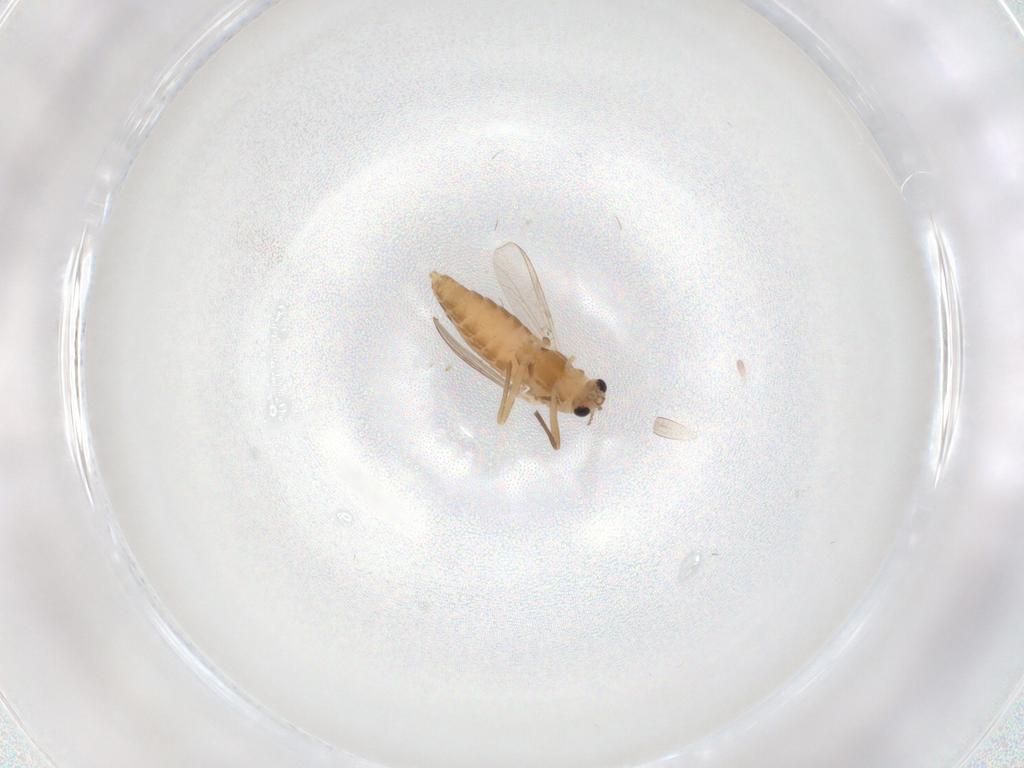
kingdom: Animalia
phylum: Arthropoda
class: Insecta
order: Diptera
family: Chironomidae
